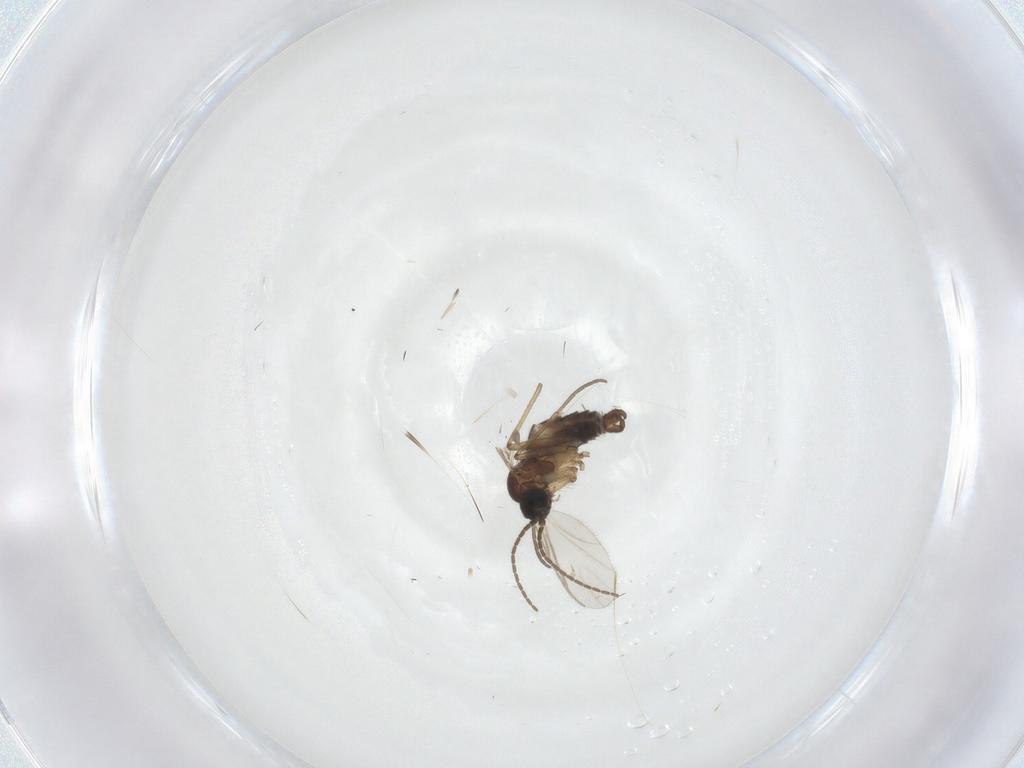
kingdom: Animalia
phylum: Arthropoda
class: Insecta
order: Diptera
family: Sciaridae
